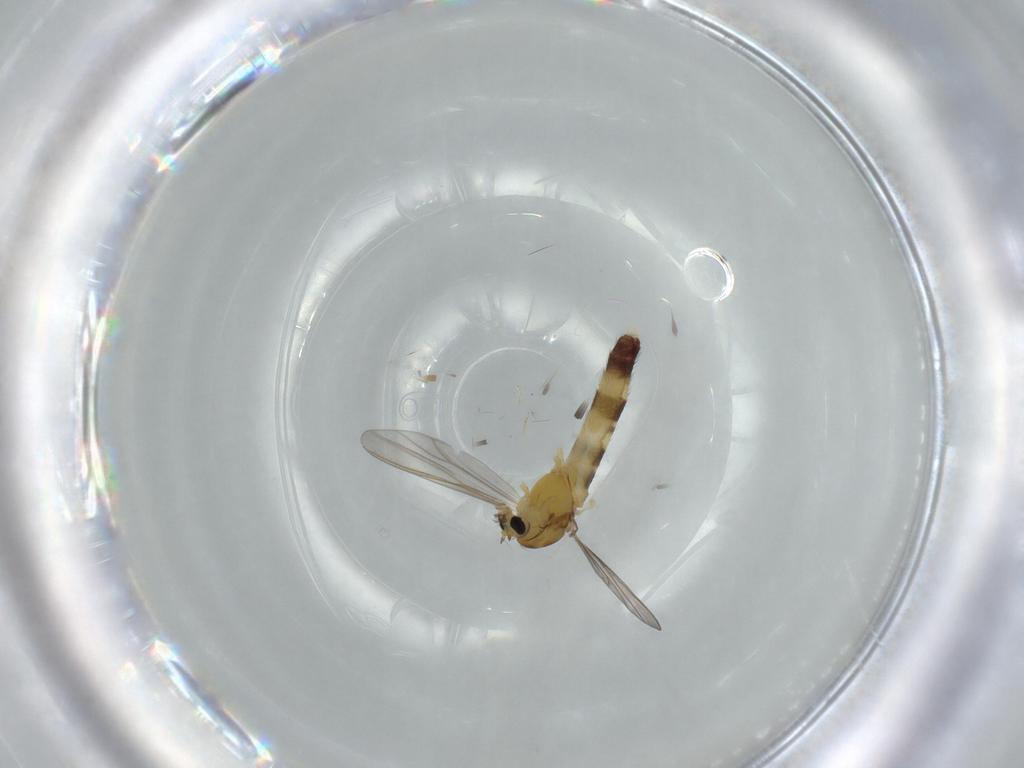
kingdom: Animalia
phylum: Arthropoda
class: Insecta
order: Diptera
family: Chironomidae
